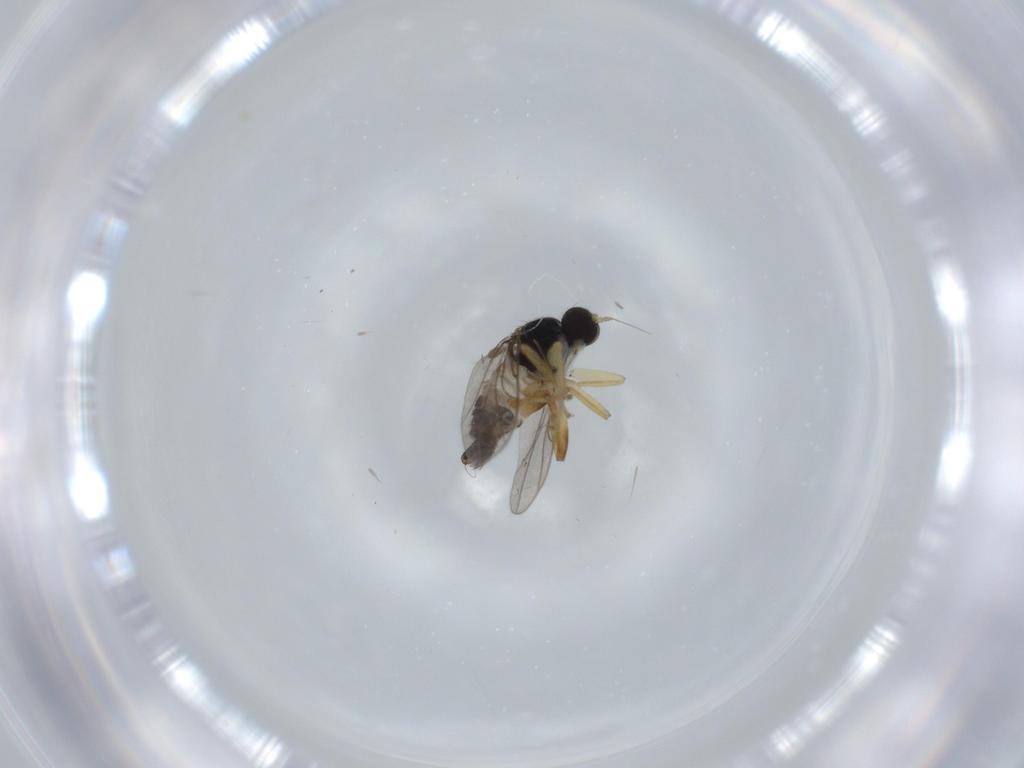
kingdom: Animalia
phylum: Arthropoda
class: Insecta
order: Diptera
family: Hybotidae
